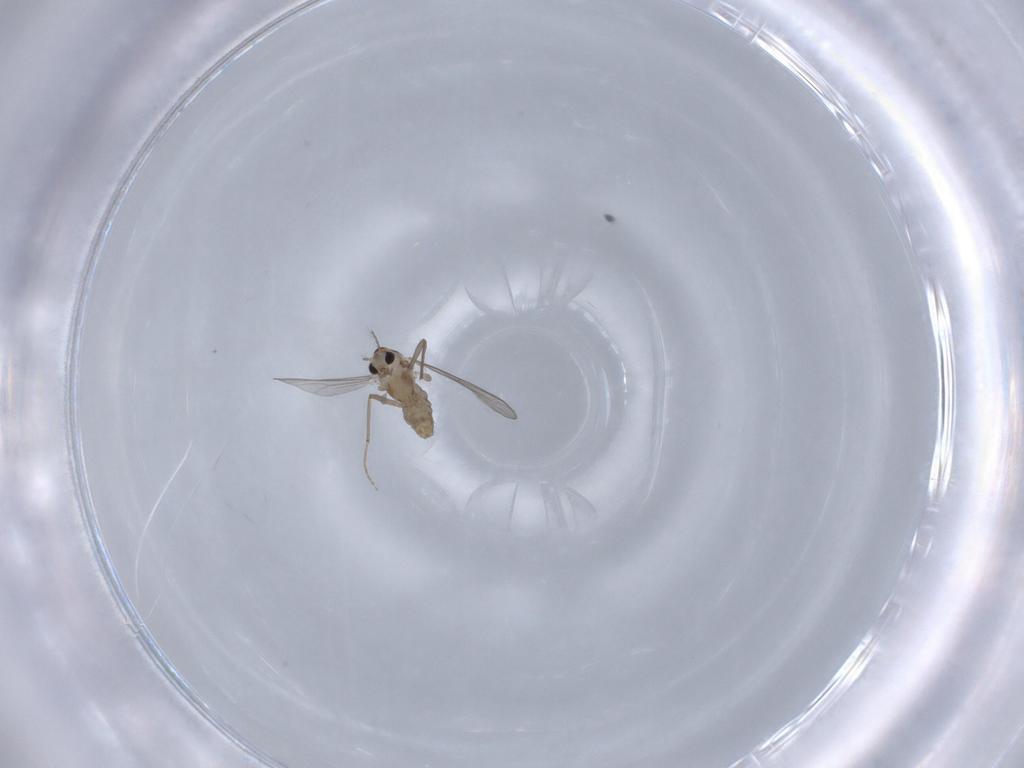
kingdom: Animalia
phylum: Arthropoda
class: Insecta
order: Diptera
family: Chironomidae
